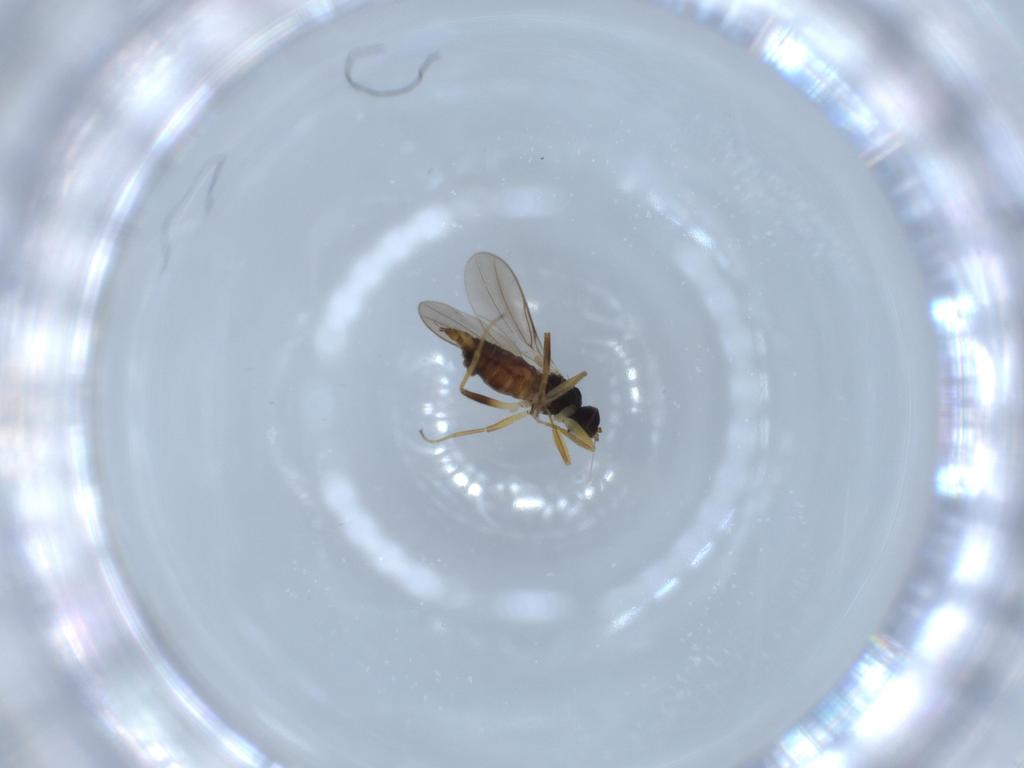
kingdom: Animalia
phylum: Arthropoda
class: Insecta
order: Diptera
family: Hybotidae
